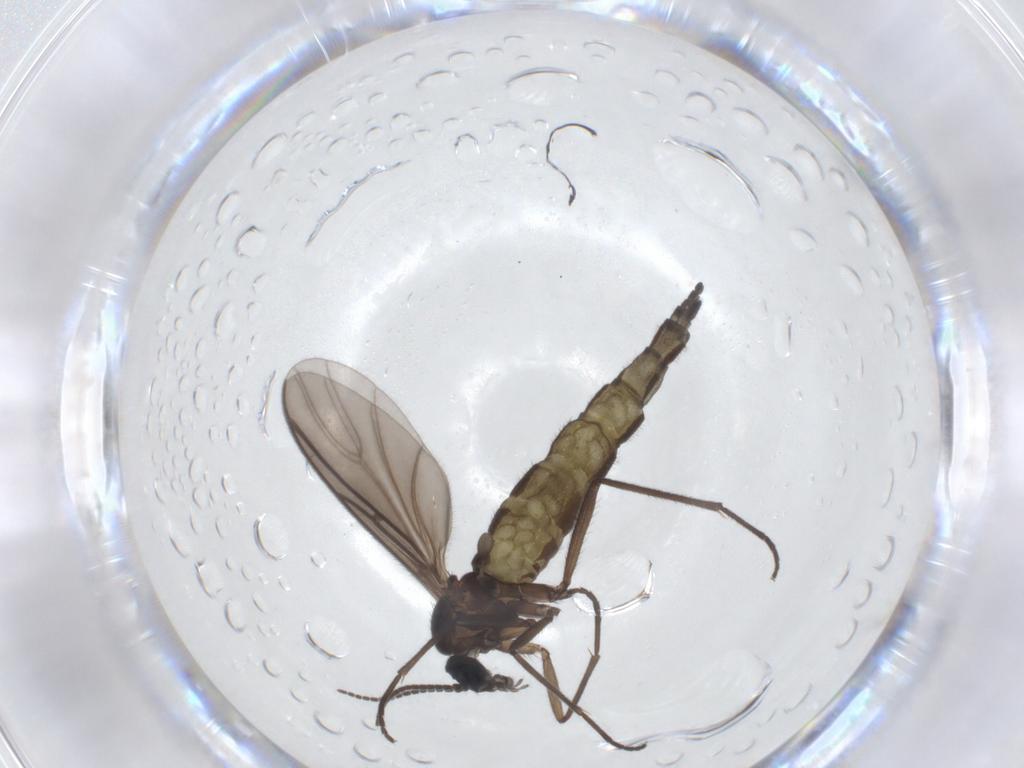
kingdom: Animalia
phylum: Arthropoda
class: Insecta
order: Diptera
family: Sciaridae
